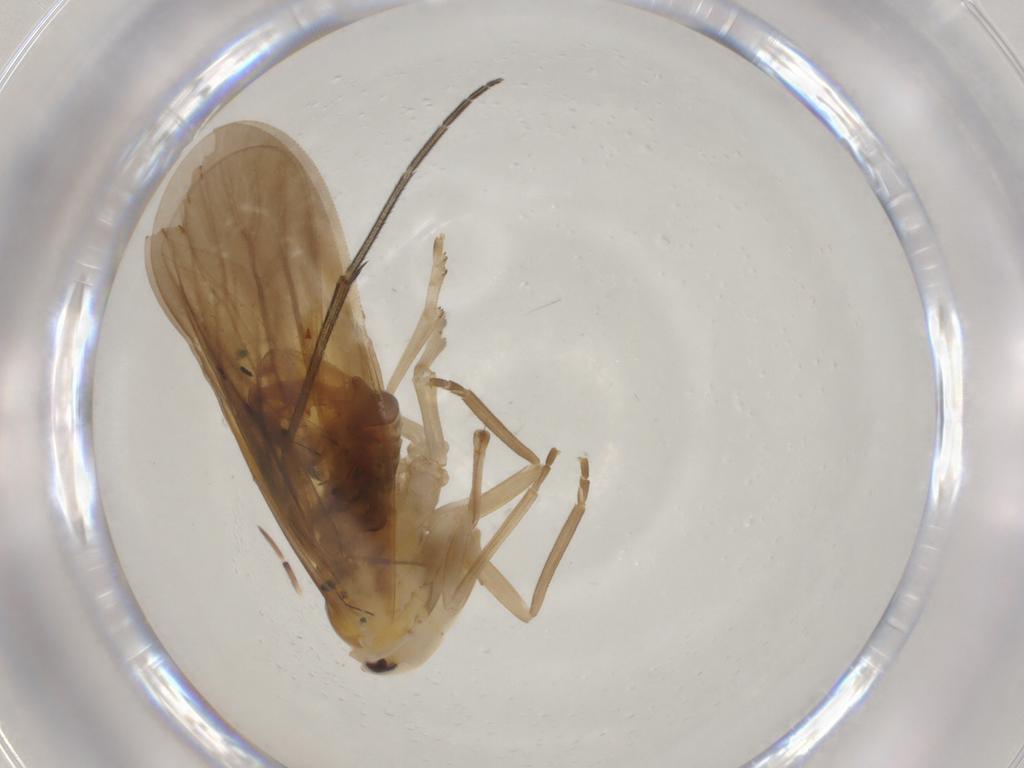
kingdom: Animalia
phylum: Arthropoda
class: Insecta
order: Hemiptera
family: Derbidae
